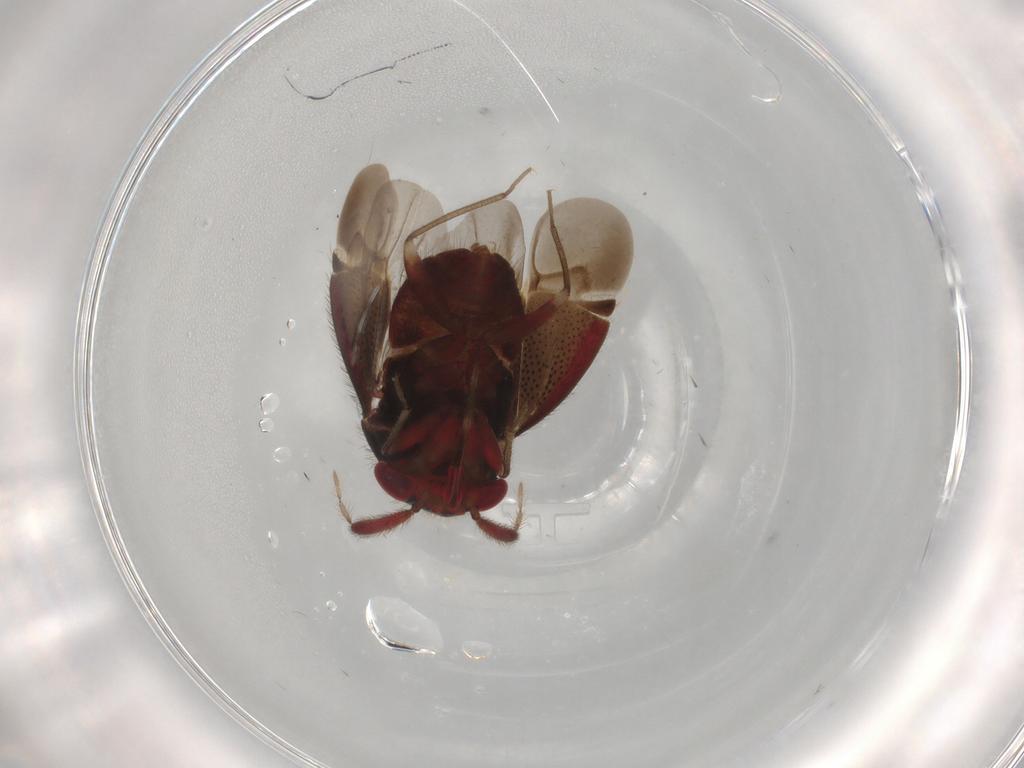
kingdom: Animalia
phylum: Arthropoda
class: Insecta
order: Hemiptera
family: Miridae
